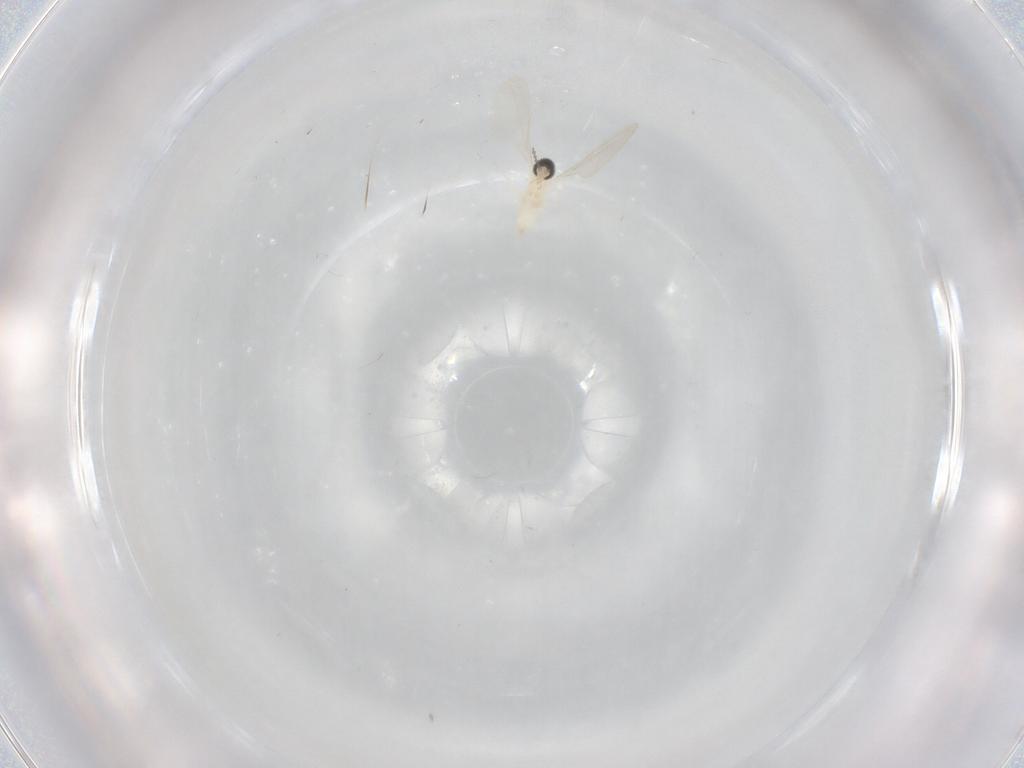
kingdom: Animalia
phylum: Arthropoda
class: Insecta
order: Diptera
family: Cecidomyiidae
